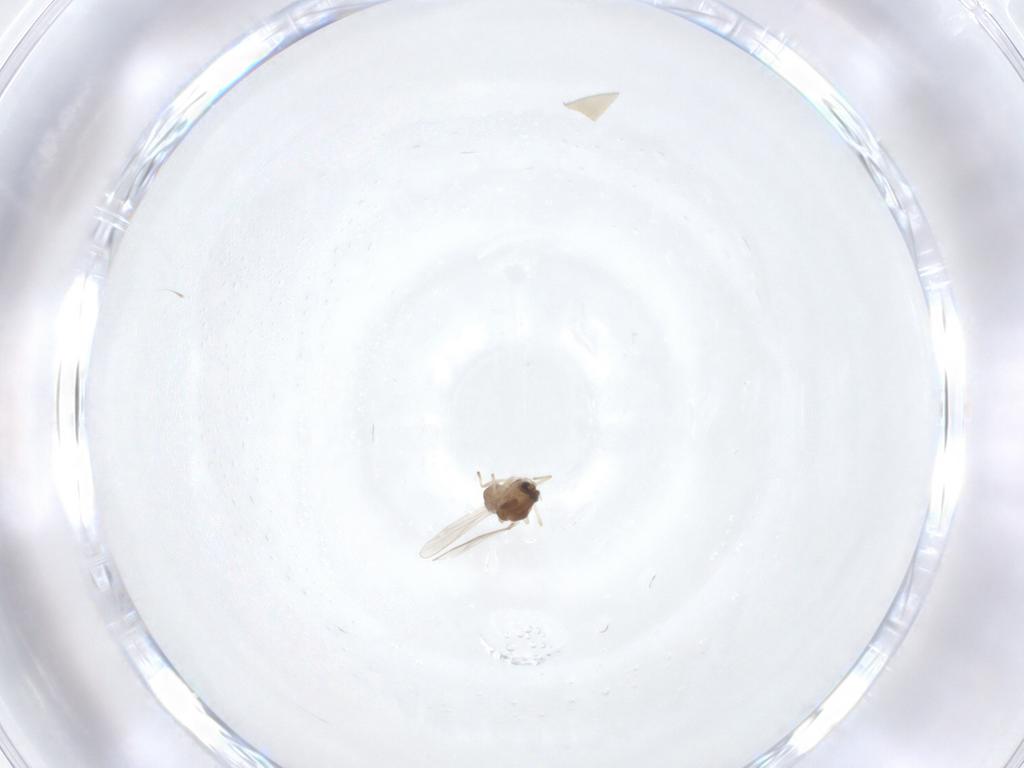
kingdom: Animalia
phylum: Arthropoda
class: Insecta
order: Diptera
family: Chironomidae
